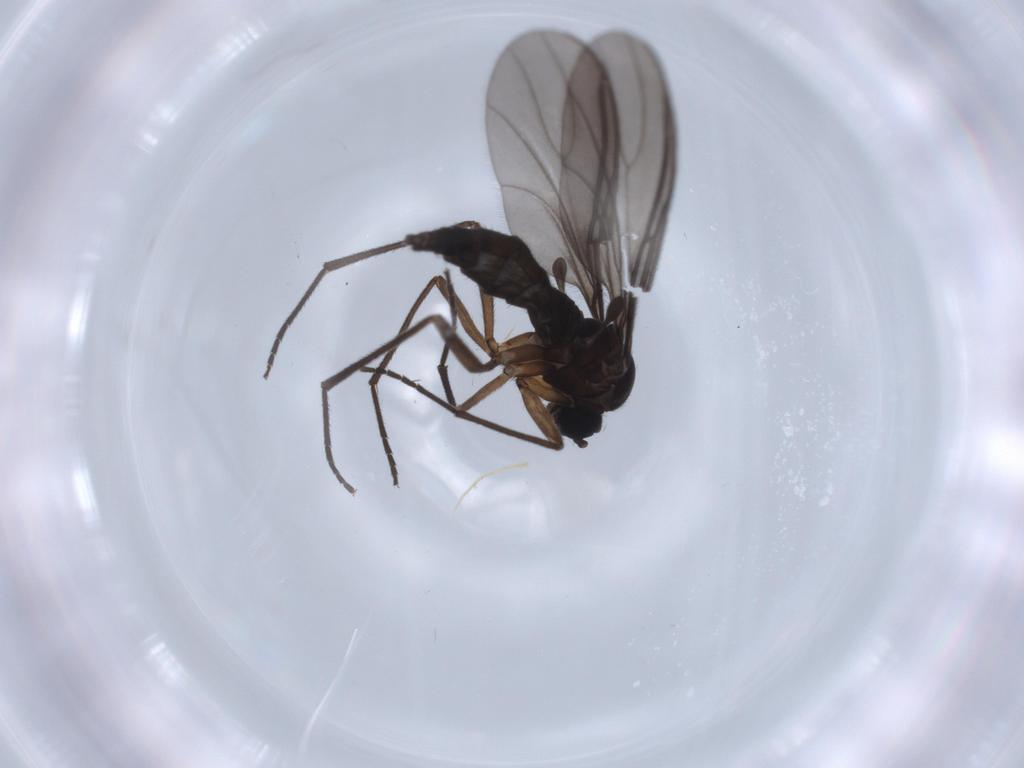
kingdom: Animalia
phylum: Arthropoda
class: Insecta
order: Diptera
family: Sciaridae
